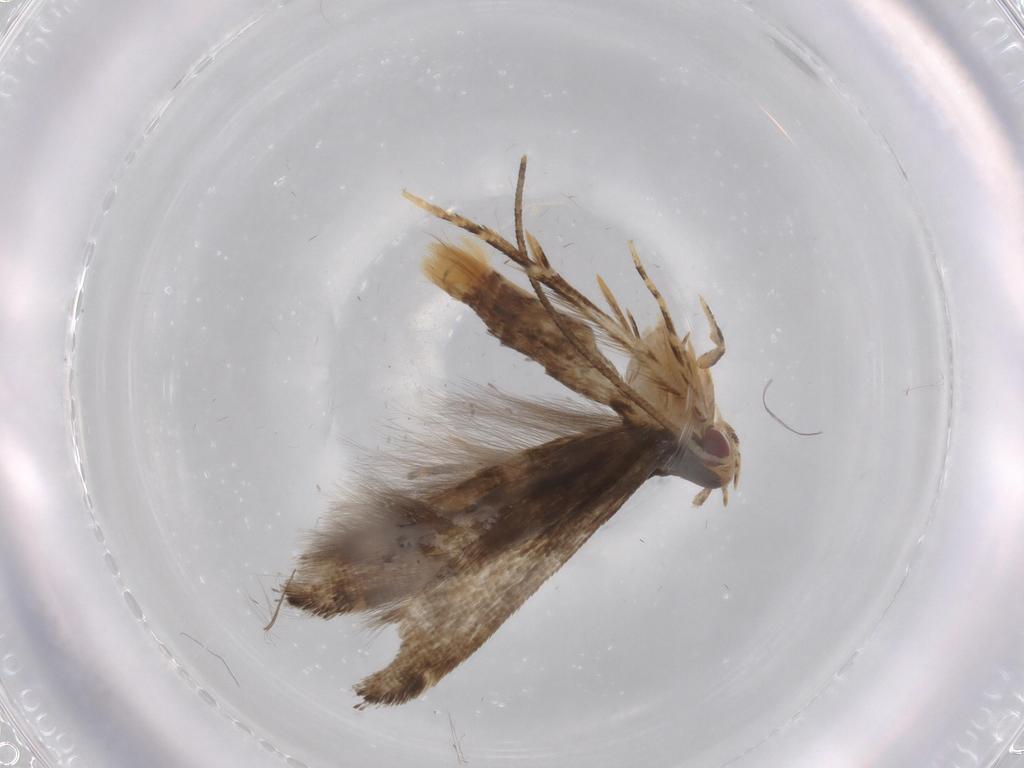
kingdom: Animalia
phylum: Arthropoda
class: Insecta
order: Lepidoptera
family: Momphidae
